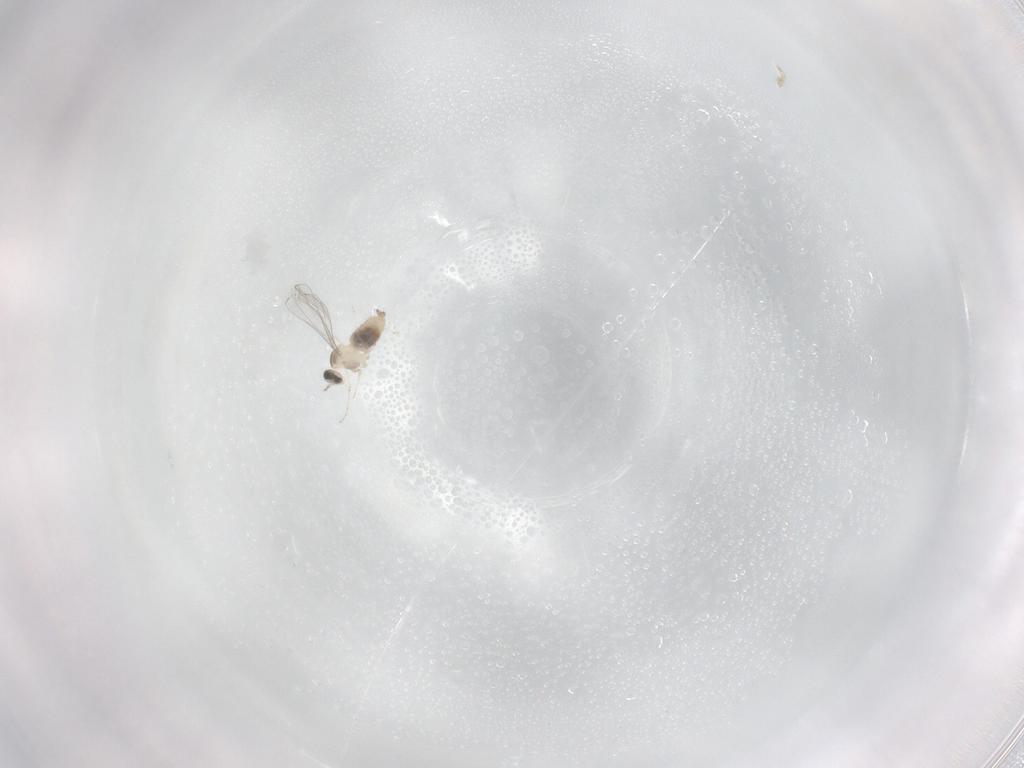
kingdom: Animalia
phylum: Arthropoda
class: Insecta
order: Diptera
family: Cecidomyiidae
